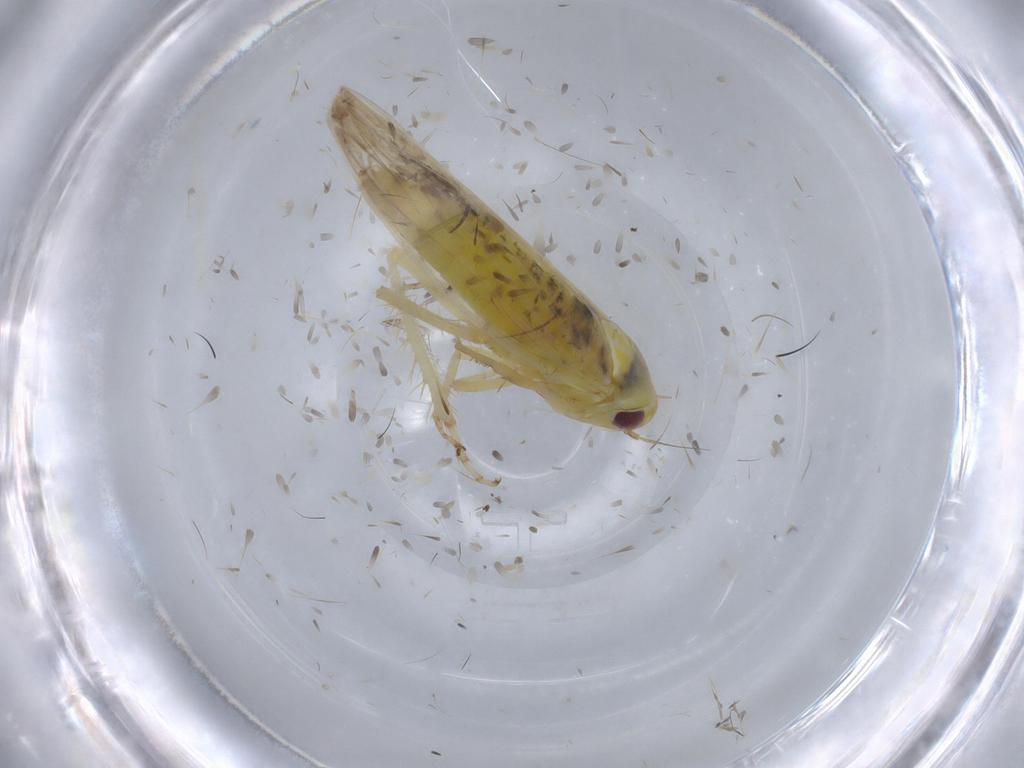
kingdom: Animalia
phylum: Arthropoda
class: Insecta
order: Hemiptera
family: Cicadellidae
